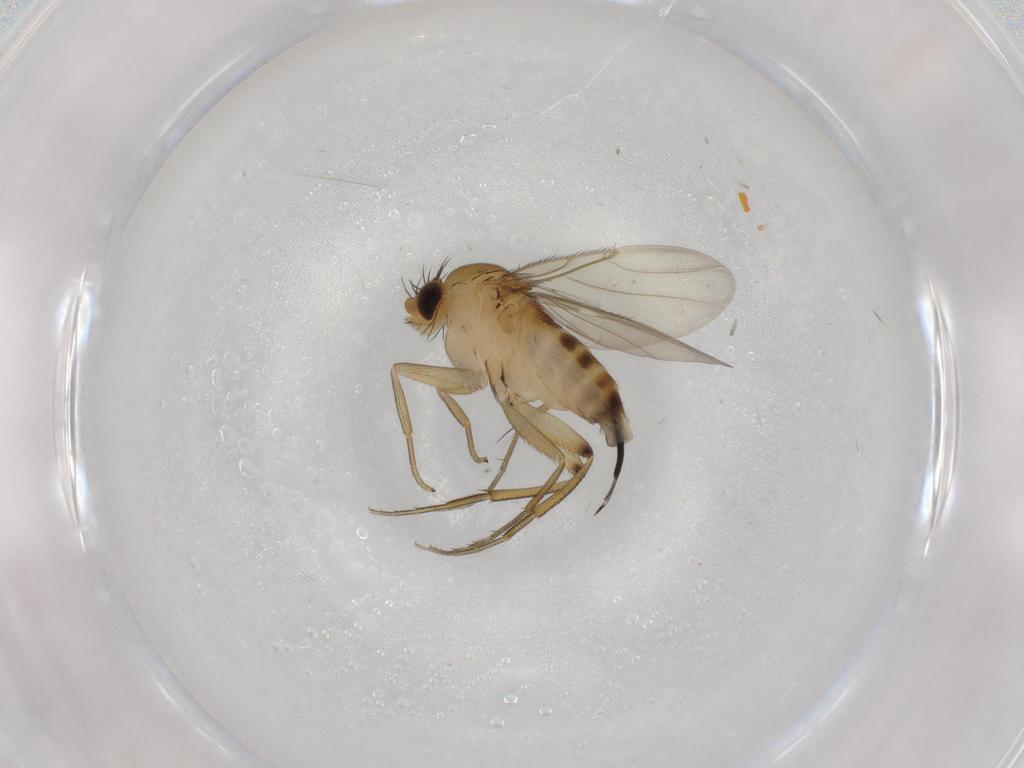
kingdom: Animalia
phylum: Arthropoda
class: Insecta
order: Diptera
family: Phoridae
